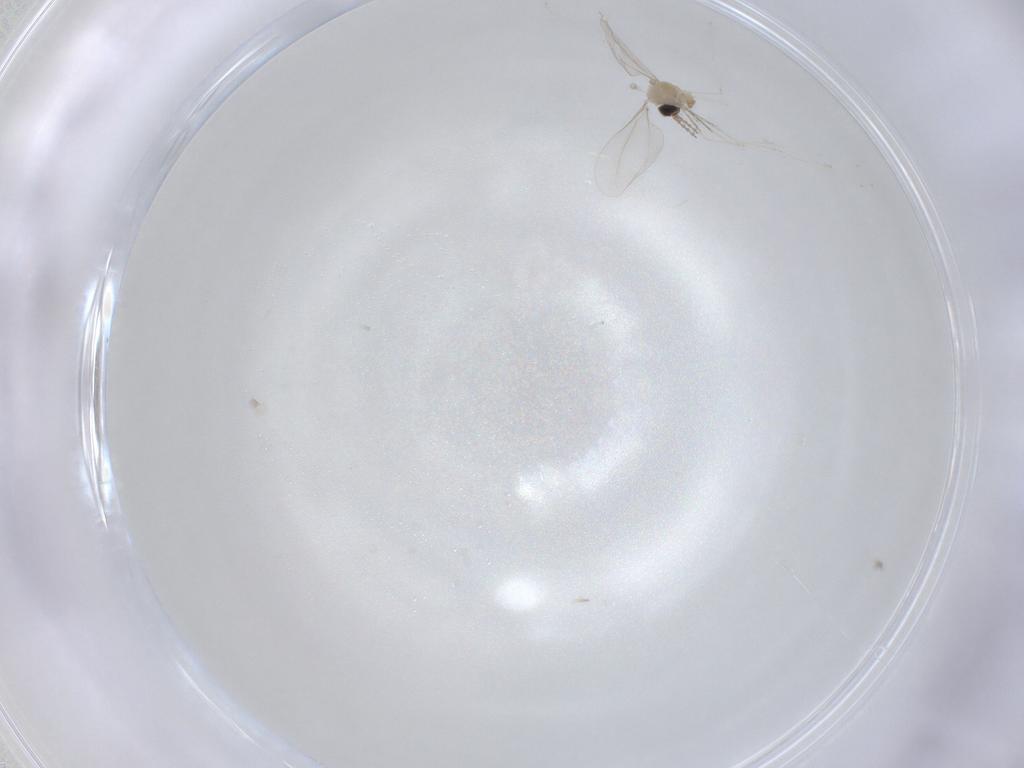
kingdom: Animalia
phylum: Arthropoda
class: Insecta
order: Diptera
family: Cecidomyiidae
